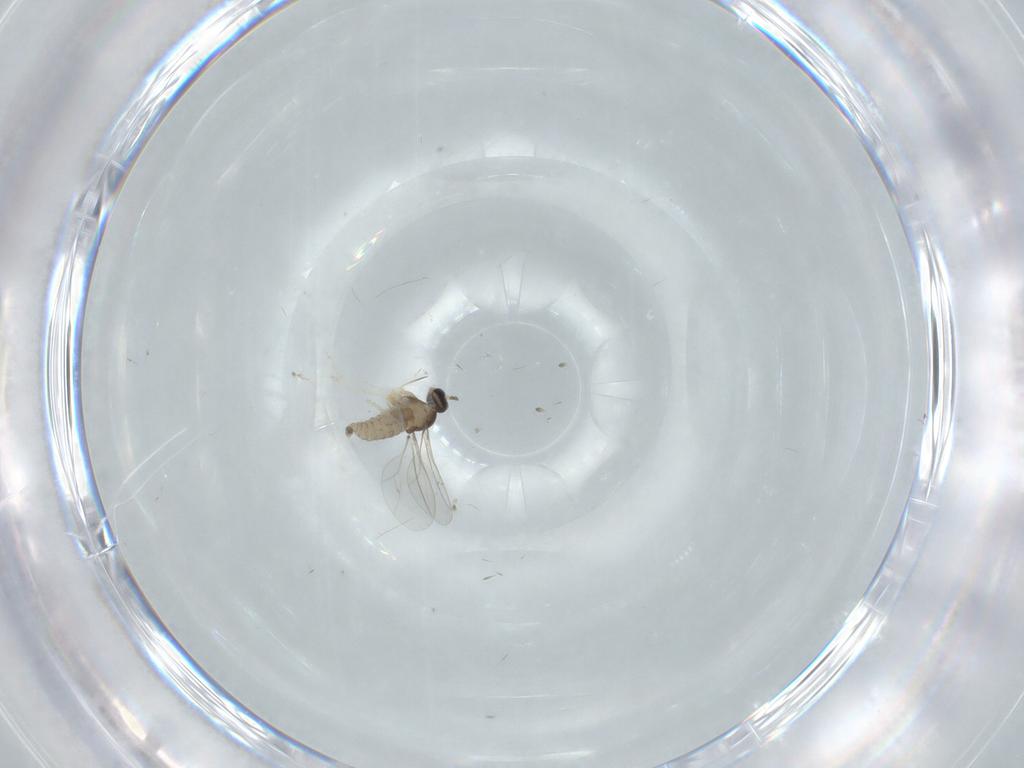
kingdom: Animalia
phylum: Arthropoda
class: Insecta
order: Diptera
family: Cecidomyiidae
